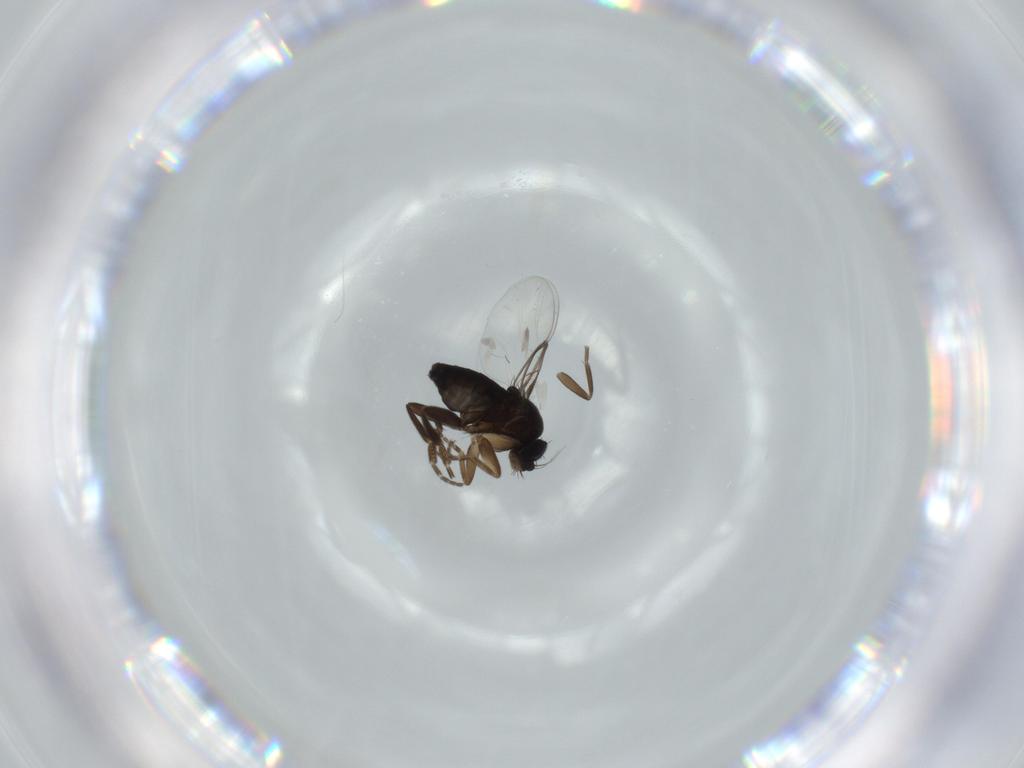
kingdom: Animalia
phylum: Arthropoda
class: Insecta
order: Diptera
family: Phoridae
